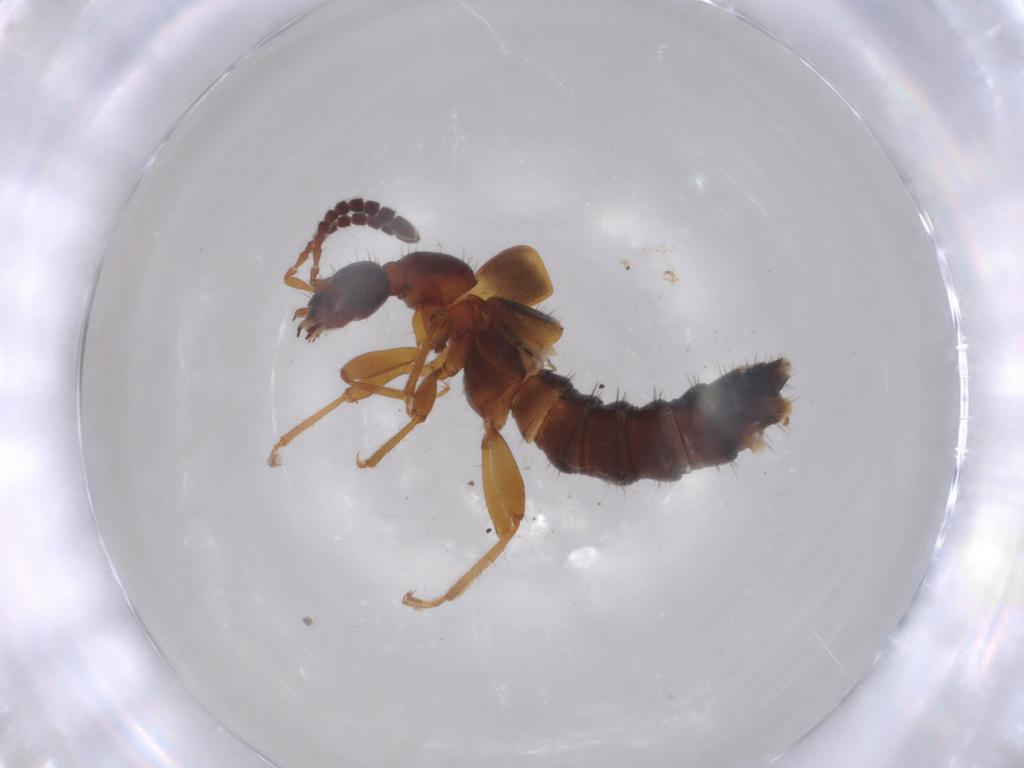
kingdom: Animalia
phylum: Arthropoda
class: Insecta
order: Coleoptera
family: Staphylinidae
